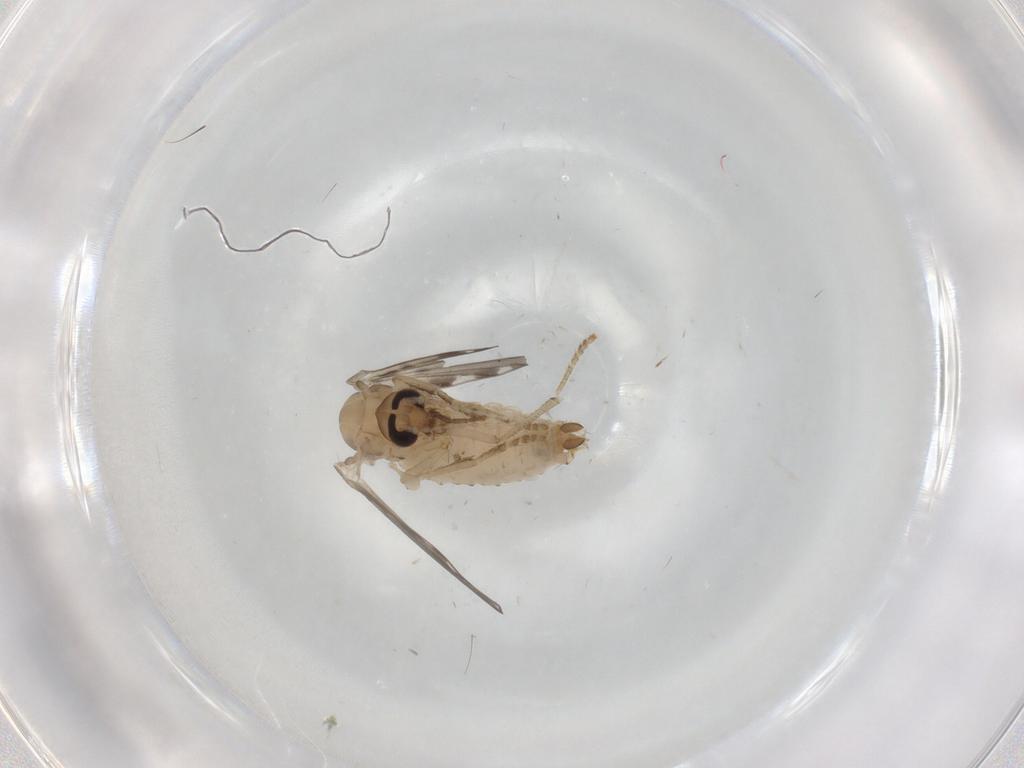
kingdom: Animalia
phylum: Arthropoda
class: Insecta
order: Diptera
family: Psychodidae
